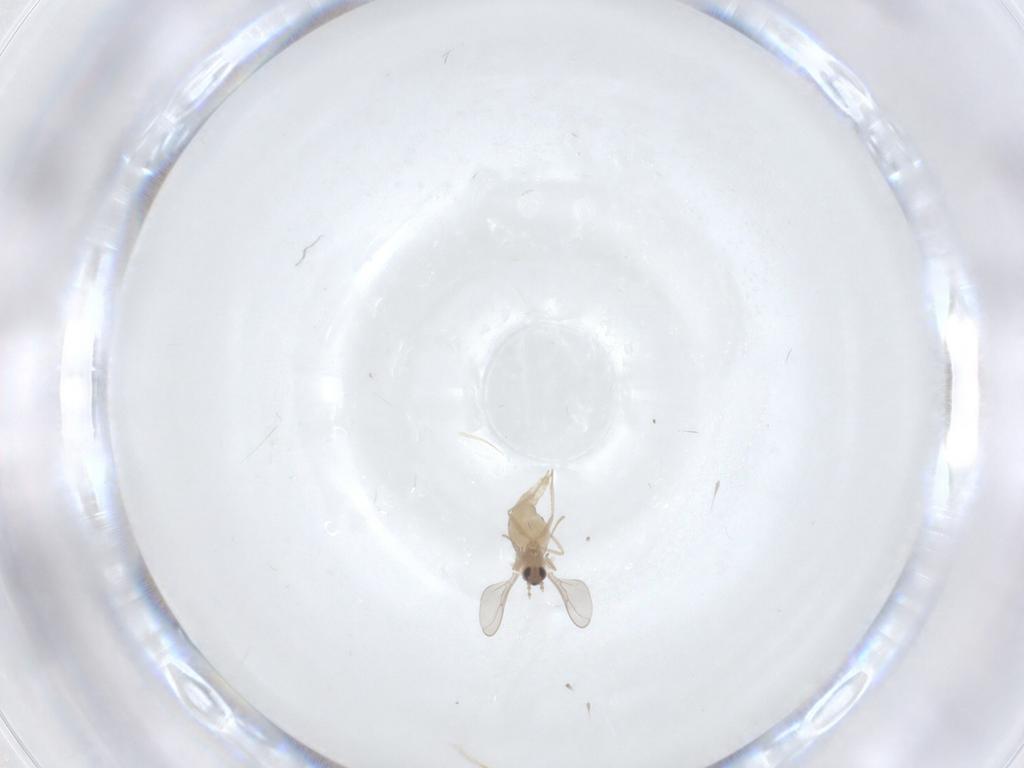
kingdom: Animalia
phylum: Arthropoda
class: Insecta
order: Diptera
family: Cecidomyiidae
